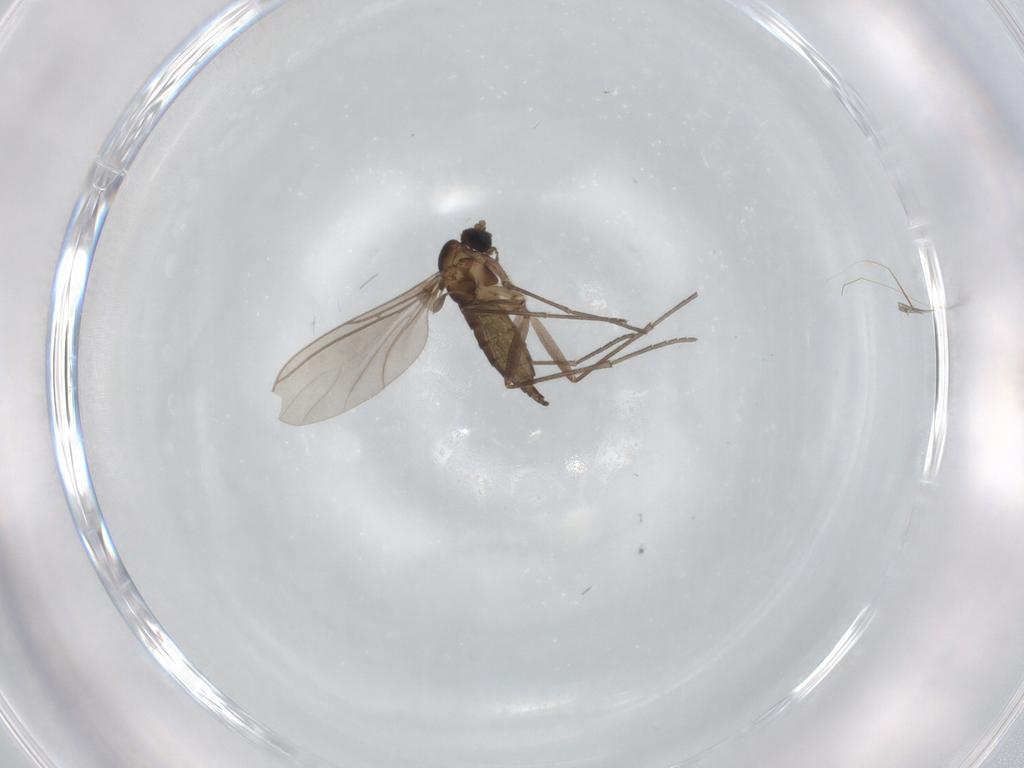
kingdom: Animalia
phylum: Arthropoda
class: Insecta
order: Diptera
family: Sciaridae
